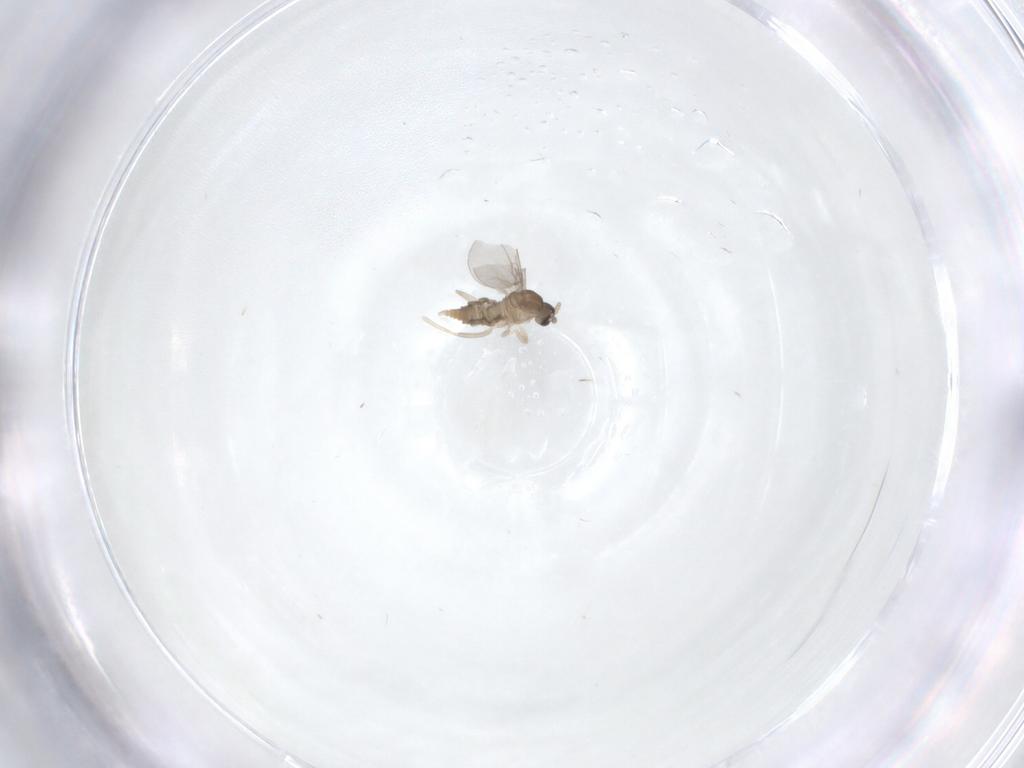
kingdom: Animalia
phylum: Arthropoda
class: Insecta
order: Diptera
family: Cecidomyiidae
